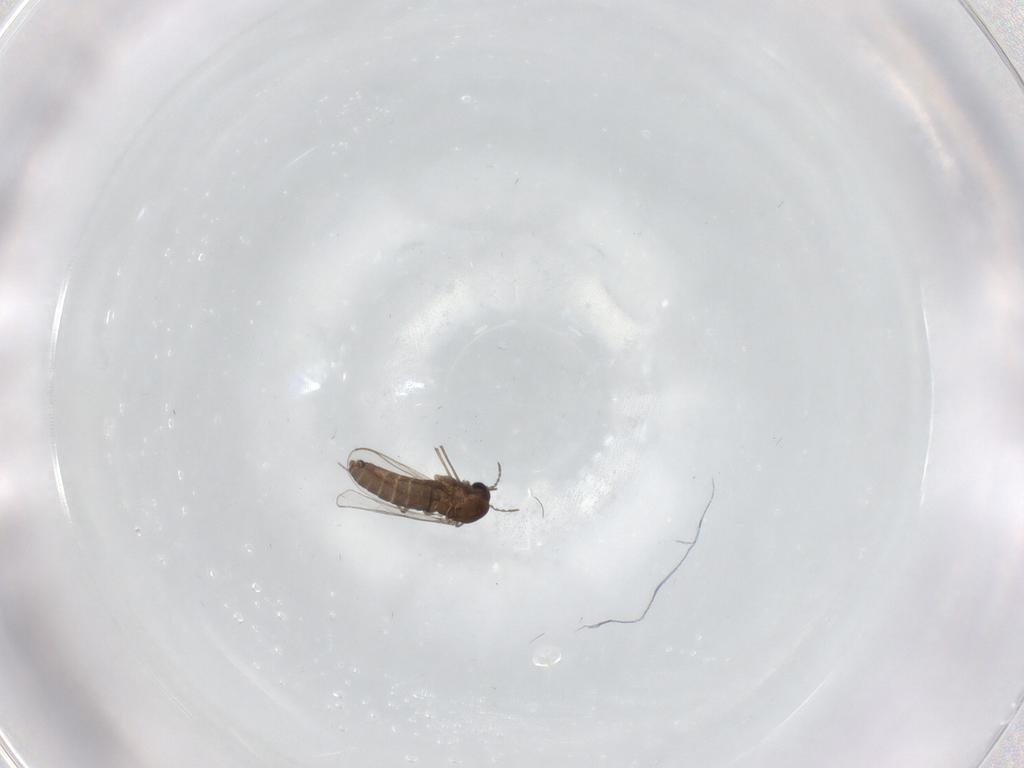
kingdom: Animalia
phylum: Arthropoda
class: Insecta
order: Diptera
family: Chironomidae
